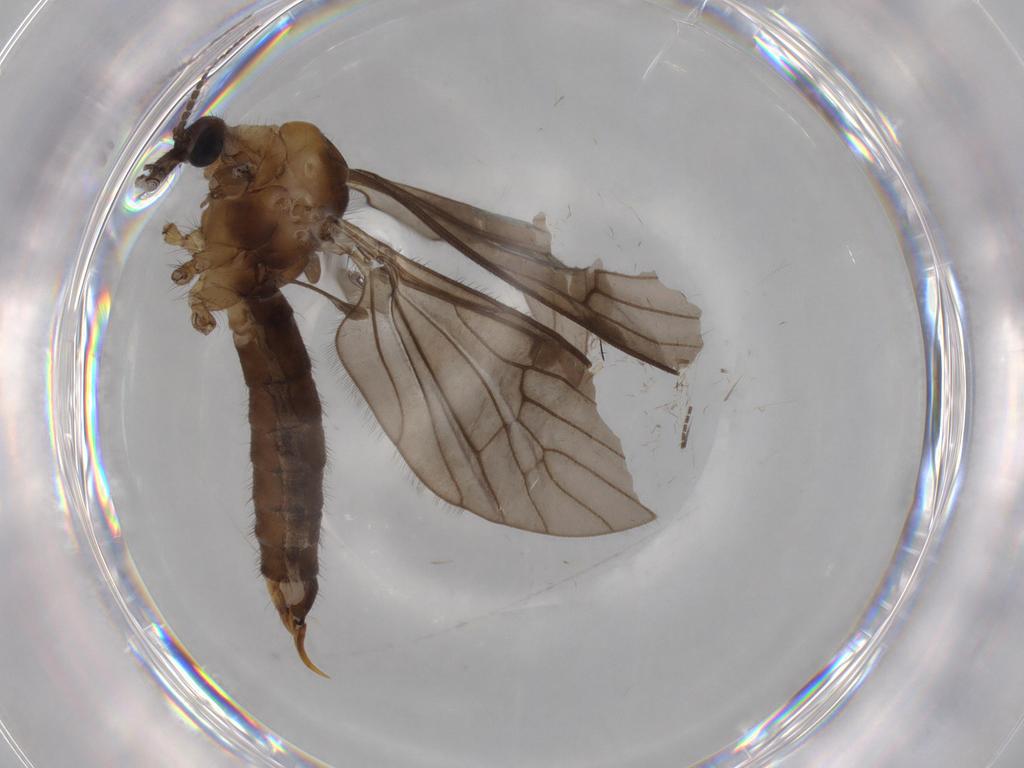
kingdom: Animalia
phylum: Arthropoda
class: Insecta
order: Diptera
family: Limoniidae
